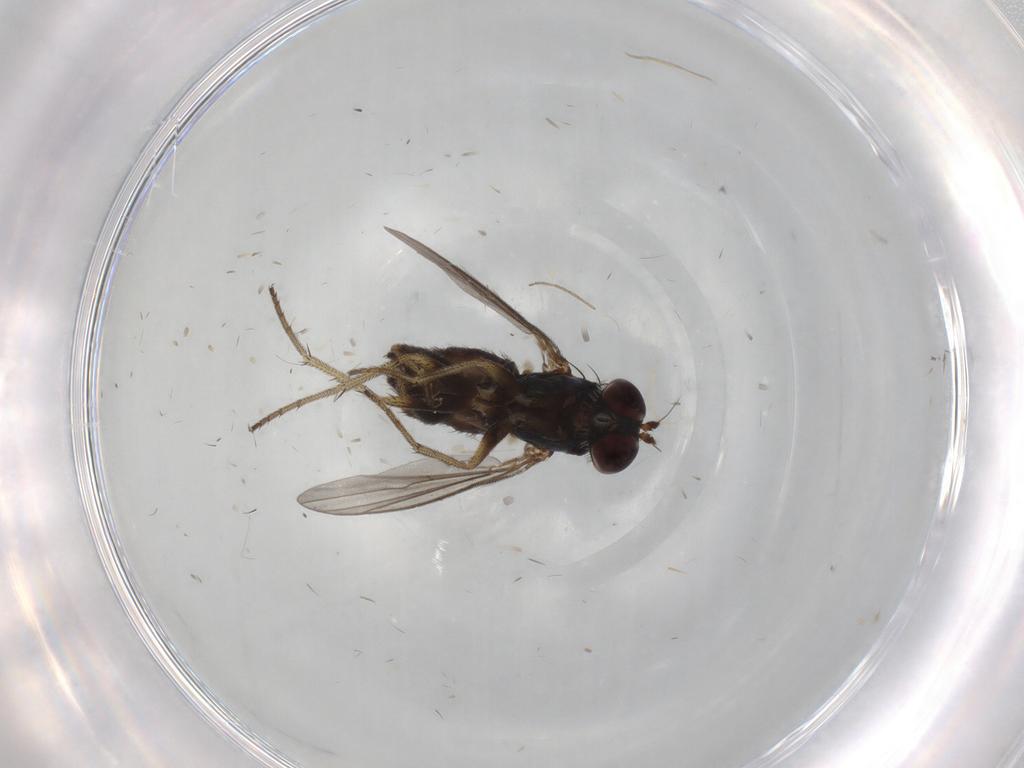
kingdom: Animalia
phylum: Arthropoda
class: Insecta
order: Diptera
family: Chironomidae
